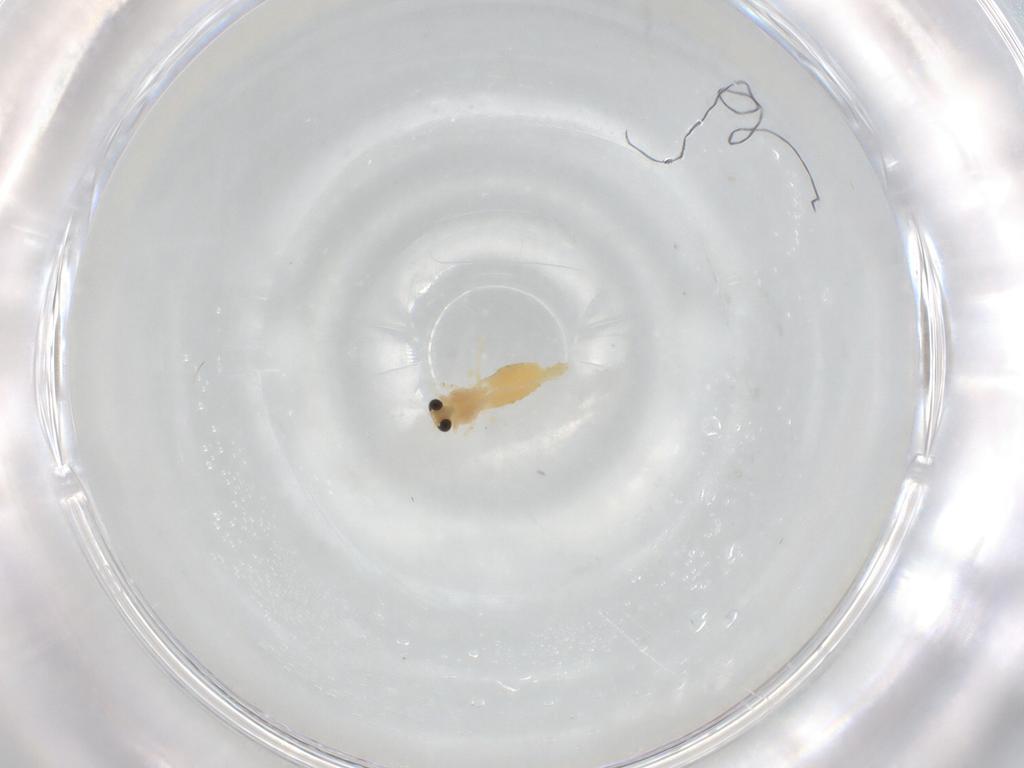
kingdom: Animalia
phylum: Arthropoda
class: Insecta
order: Diptera
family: Chironomidae
